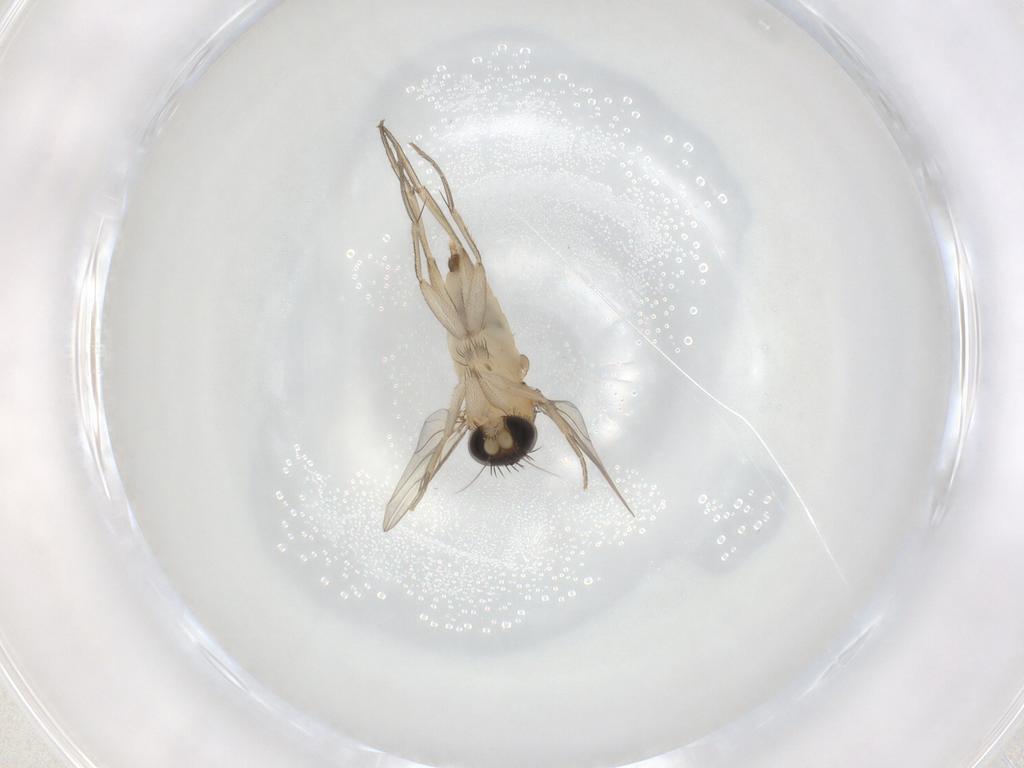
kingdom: Animalia
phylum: Arthropoda
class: Insecta
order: Diptera
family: Phoridae
